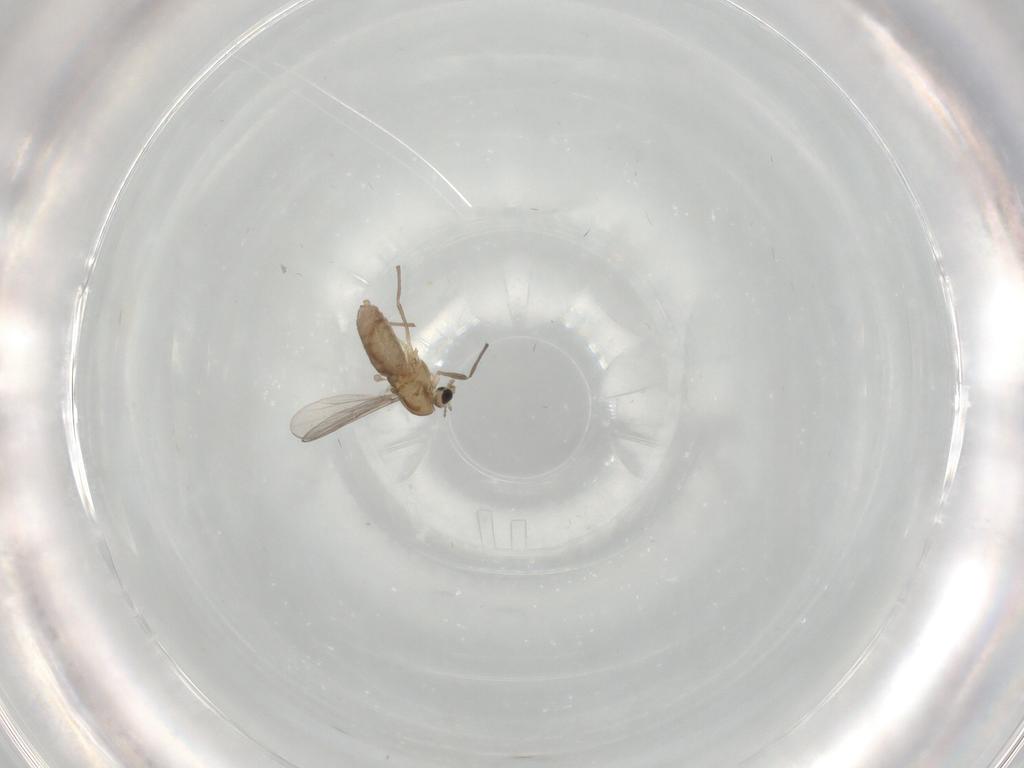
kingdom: Animalia
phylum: Arthropoda
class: Insecta
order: Diptera
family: Chironomidae
